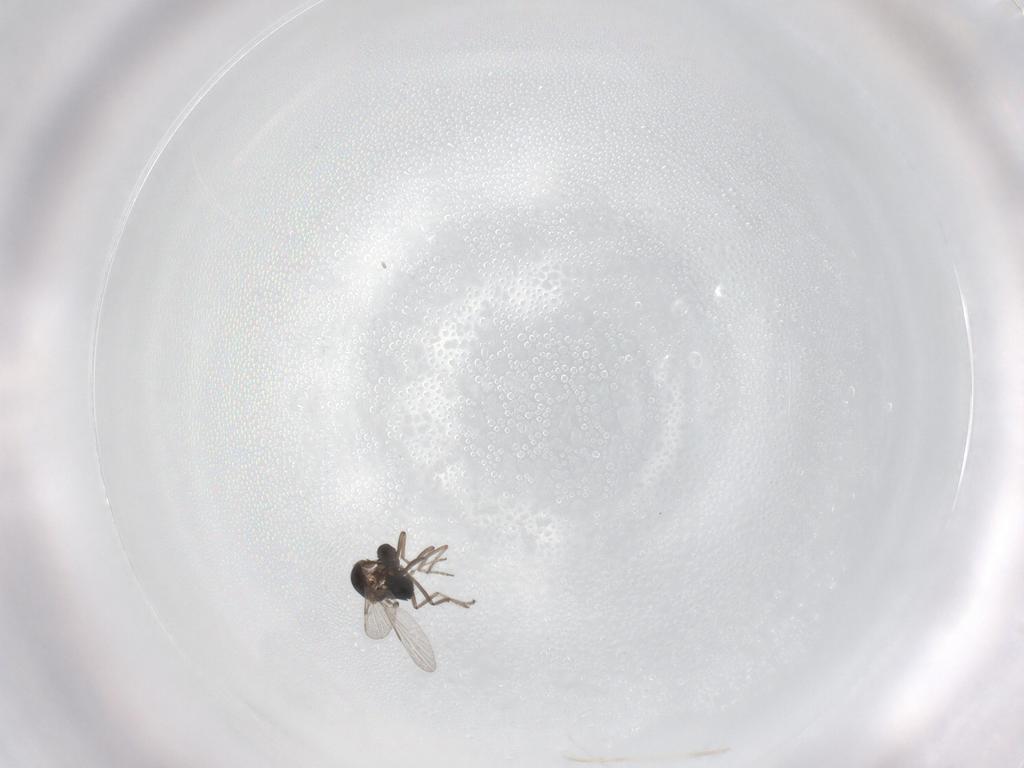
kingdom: Animalia
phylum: Arthropoda
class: Insecta
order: Diptera
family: Ceratopogonidae
